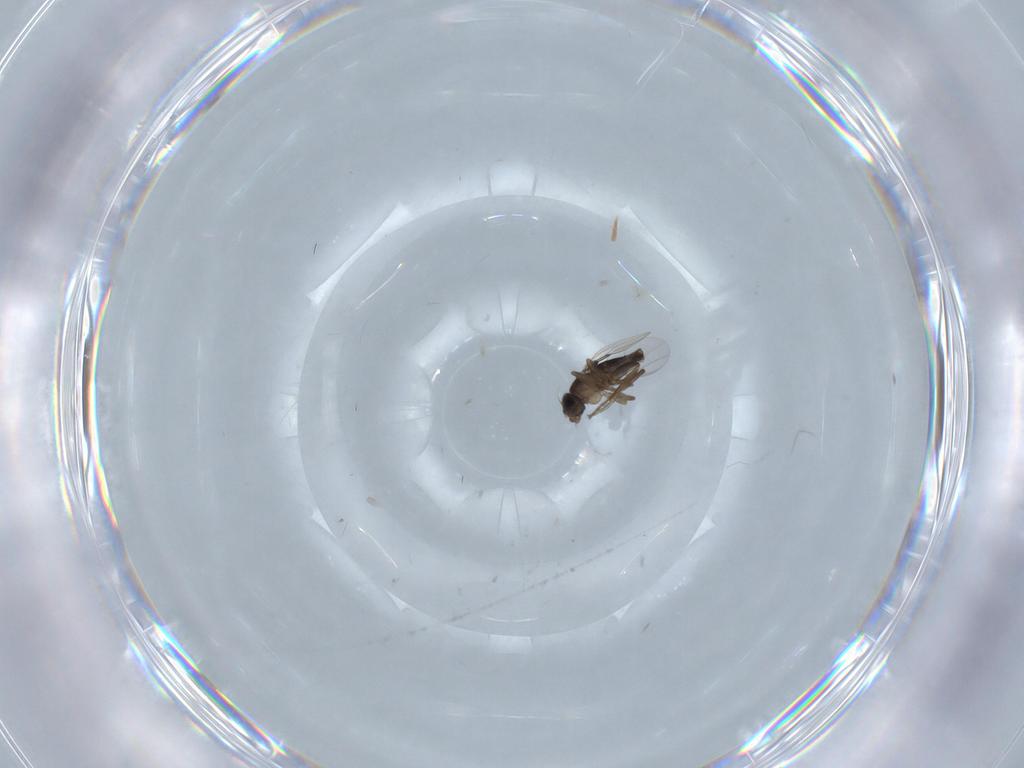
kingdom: Animalia
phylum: Arthropoda
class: Insecta
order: Diptera
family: Phoridae
